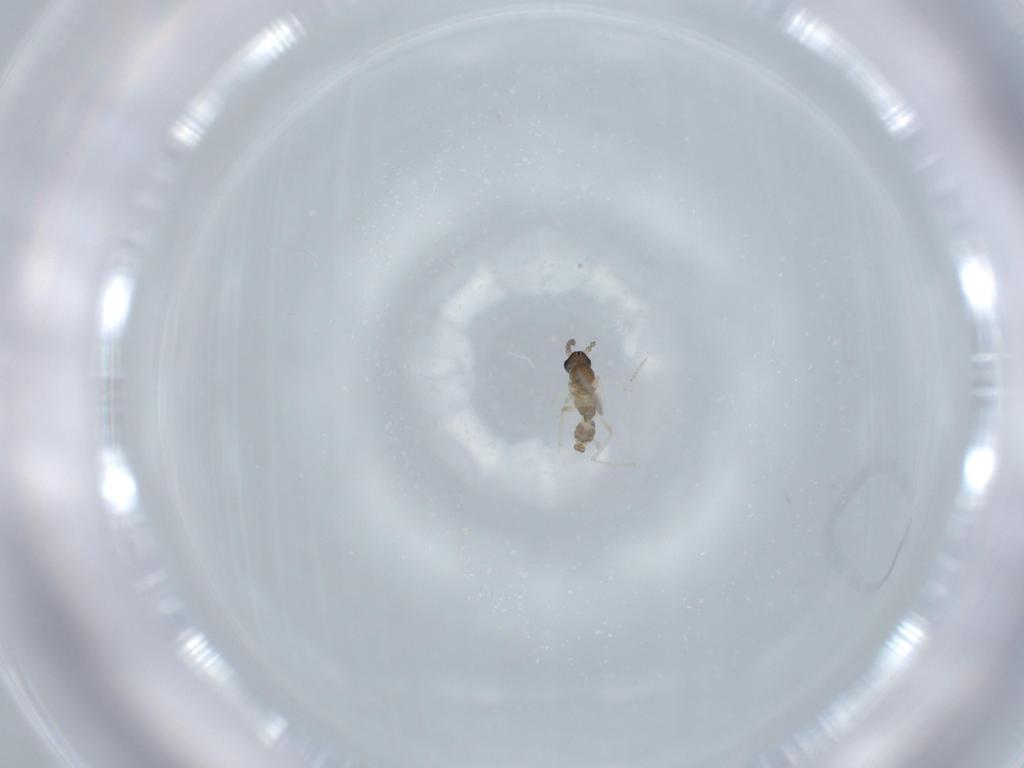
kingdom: Animalia
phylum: Arthropoda
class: Insecta
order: Diptera
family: Cecidomyiidae
